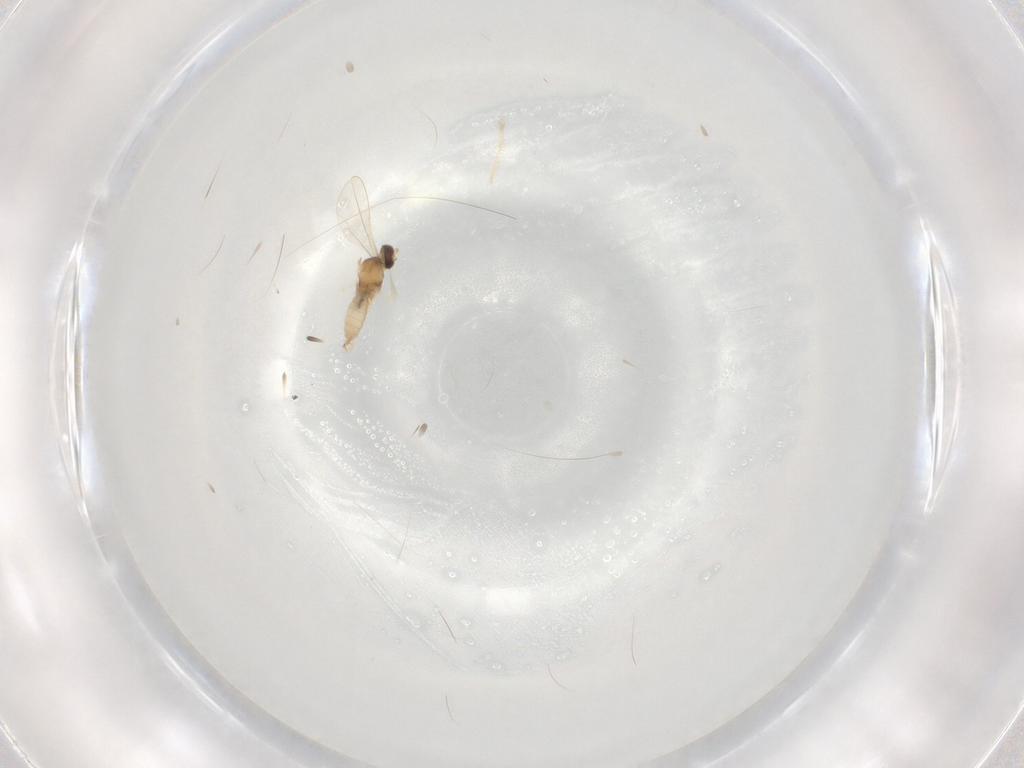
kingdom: Animalia
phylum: Arthropoda
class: Insecta
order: Diptera
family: Cecidomyiidae
